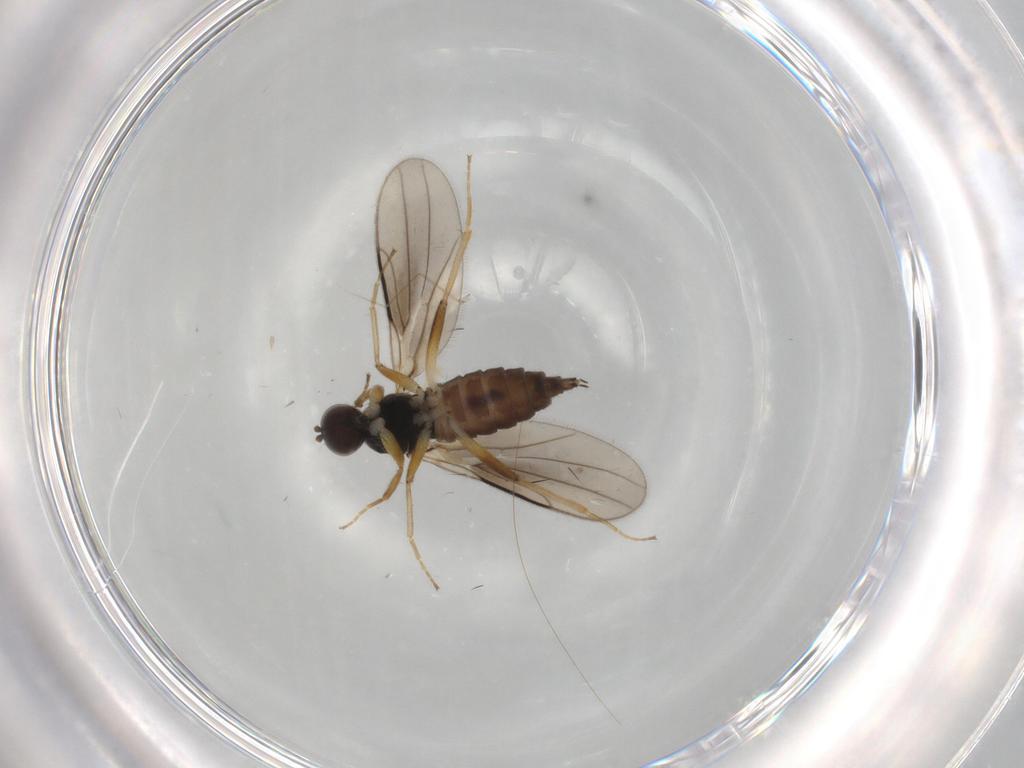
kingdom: Animalia
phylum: Arthropoda
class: Insecta
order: Diptera
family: Hybotidae
